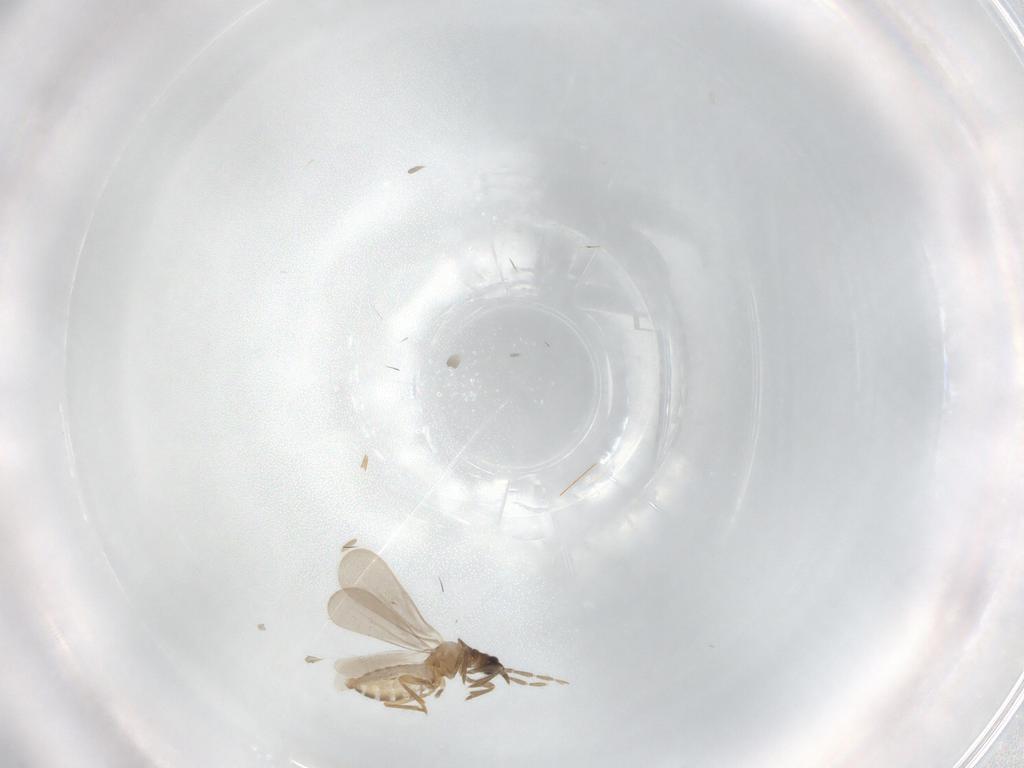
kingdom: Animalia
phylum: Arthropoda
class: Insecta
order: Hemiptera
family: Enicocephalidae
